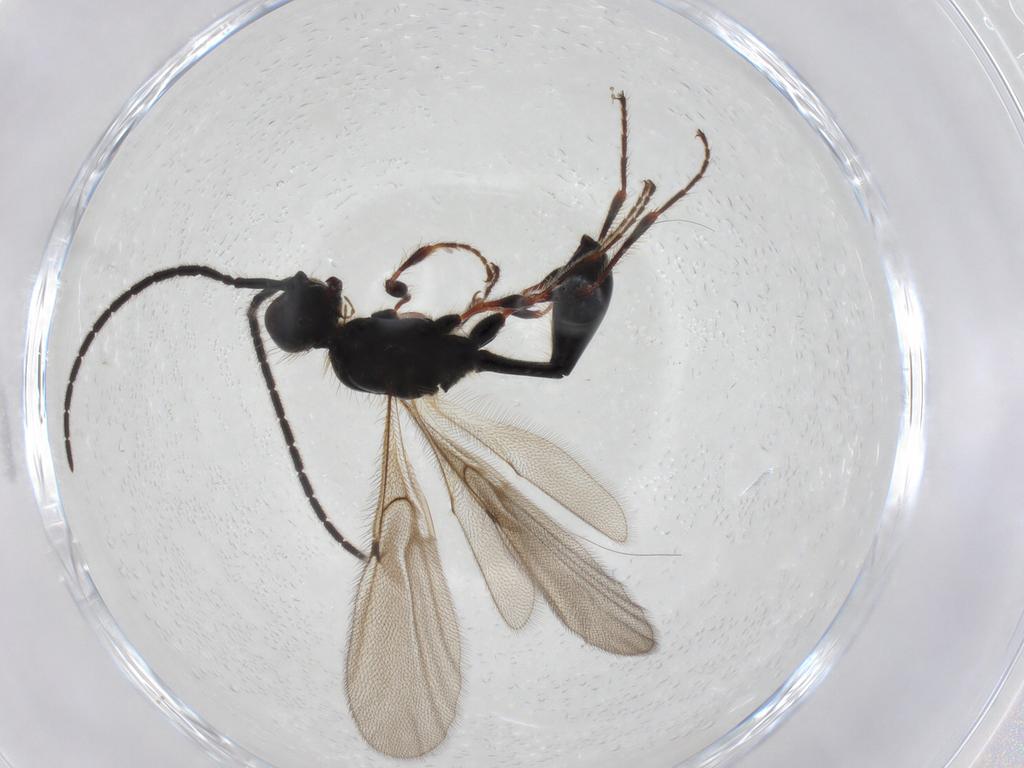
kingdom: Animalia
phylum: Arthropoda
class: Insecta
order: Hymenoptera
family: Diapriidae
